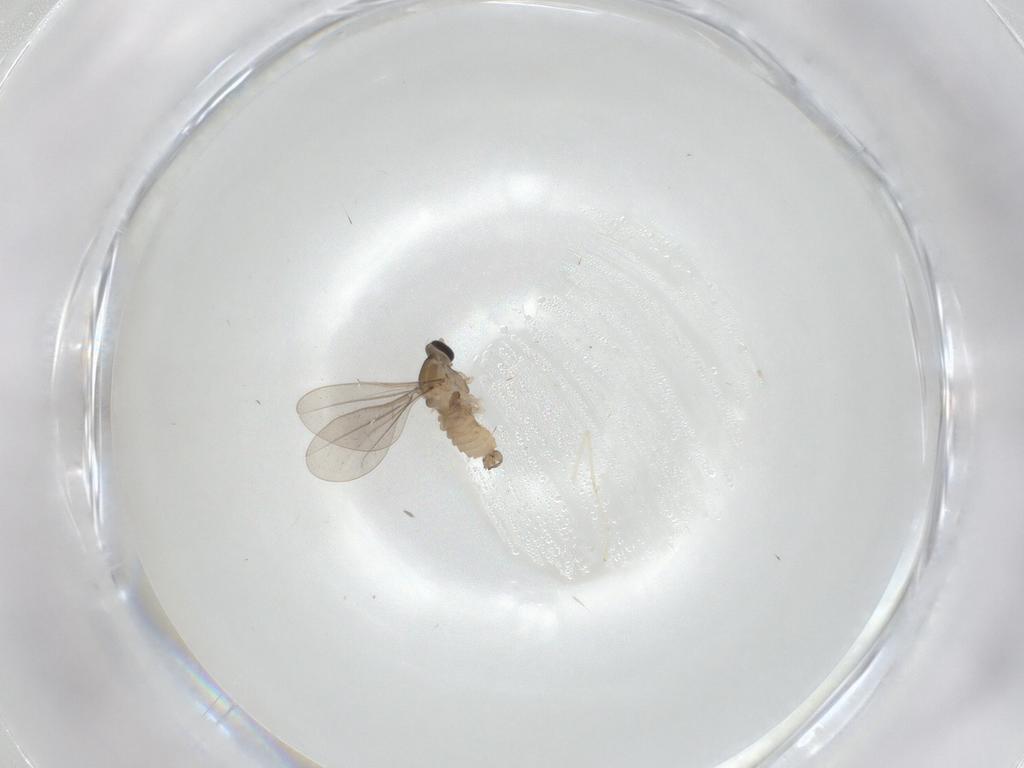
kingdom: Animalia
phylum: Arthropoda
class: Insecta
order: Diptera
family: Cecidomyiidae
